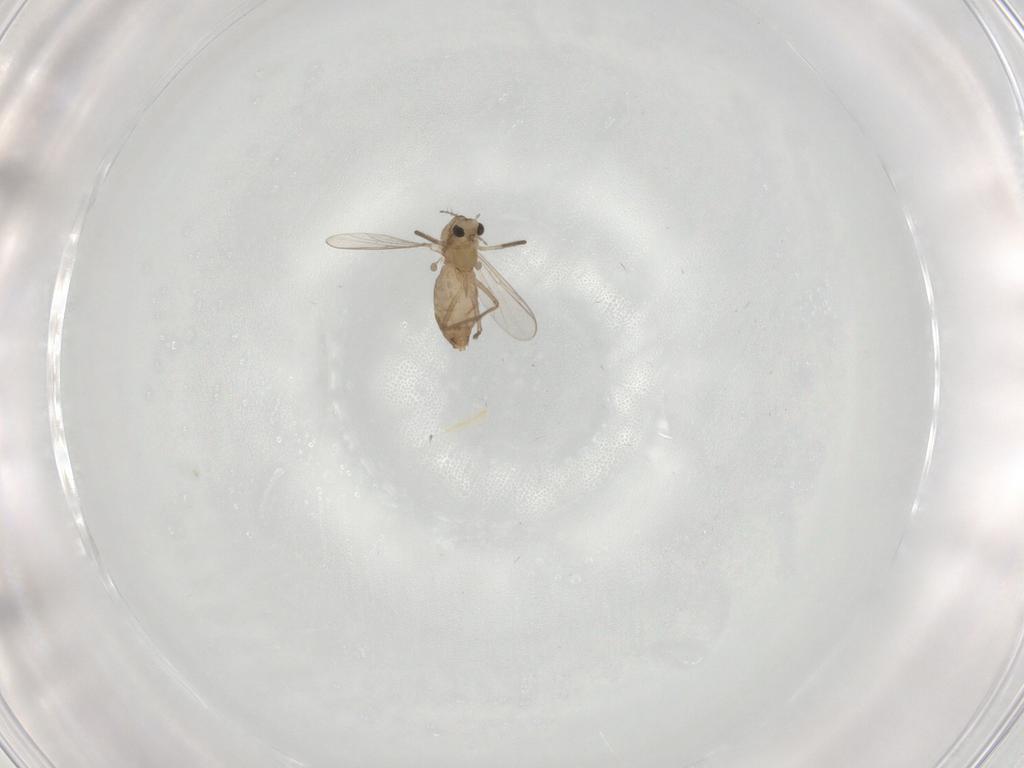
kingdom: Animalia
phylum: Arthropoda
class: Insecta
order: Diptera
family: Chironomidae
